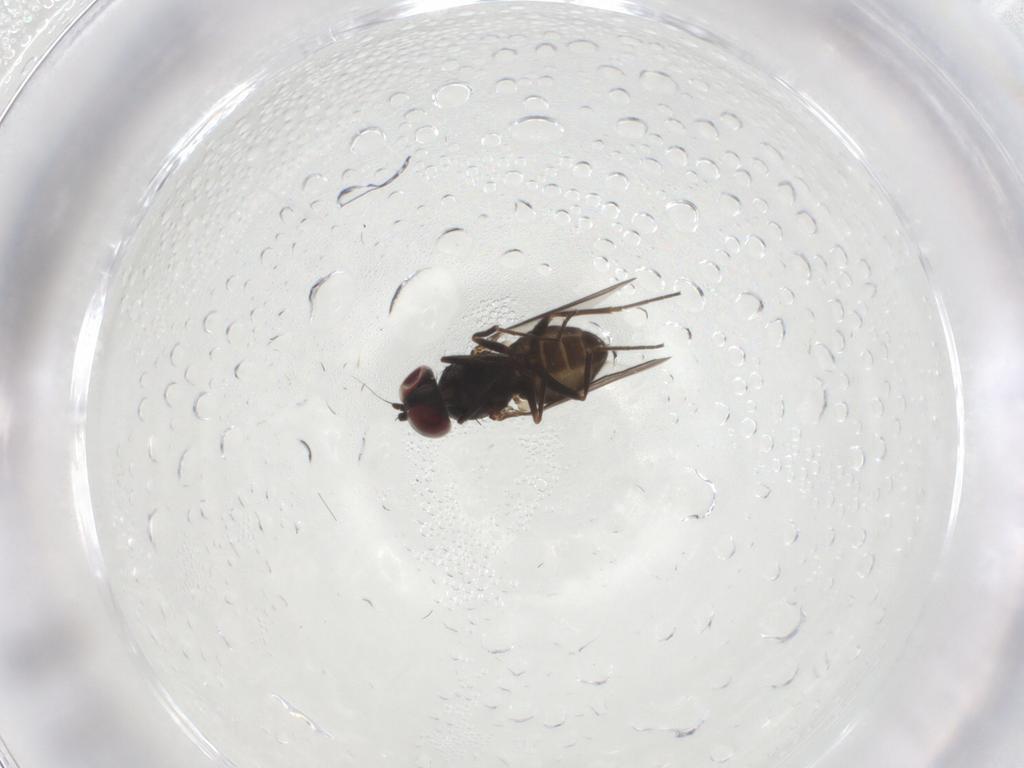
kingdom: Animalia
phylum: Arthropoda
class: Insecta
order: Diptera
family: Dolichopodidae
